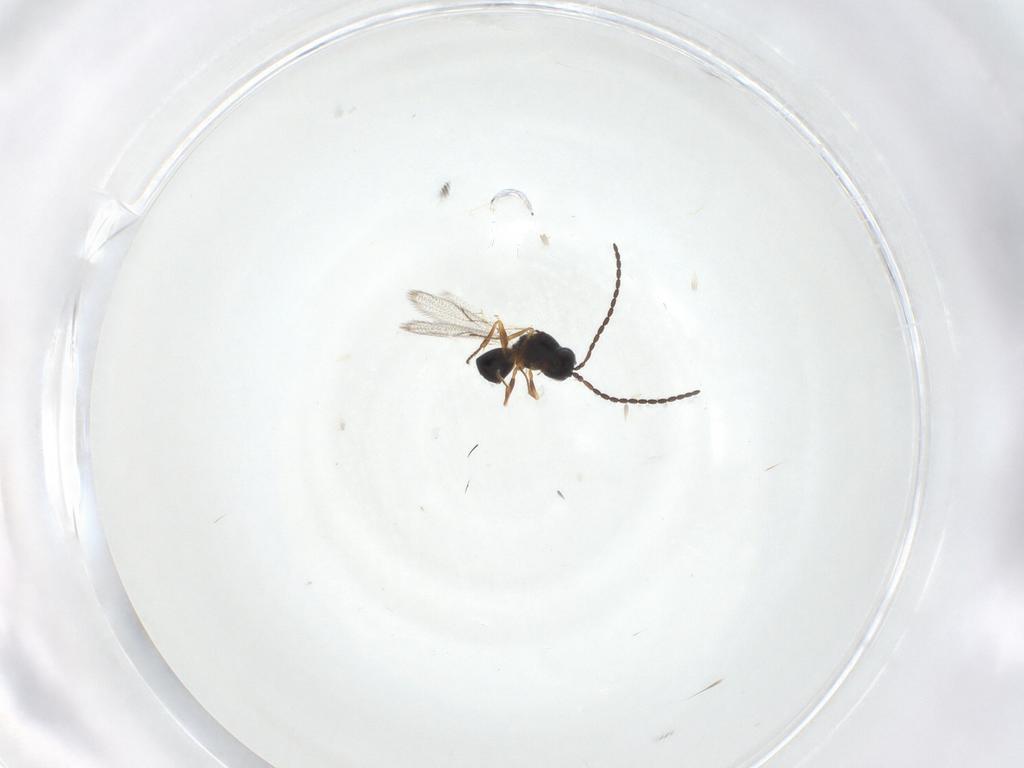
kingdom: Animalia
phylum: Arthropoda
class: Insecta
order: Hymenoptera
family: Figitidae
